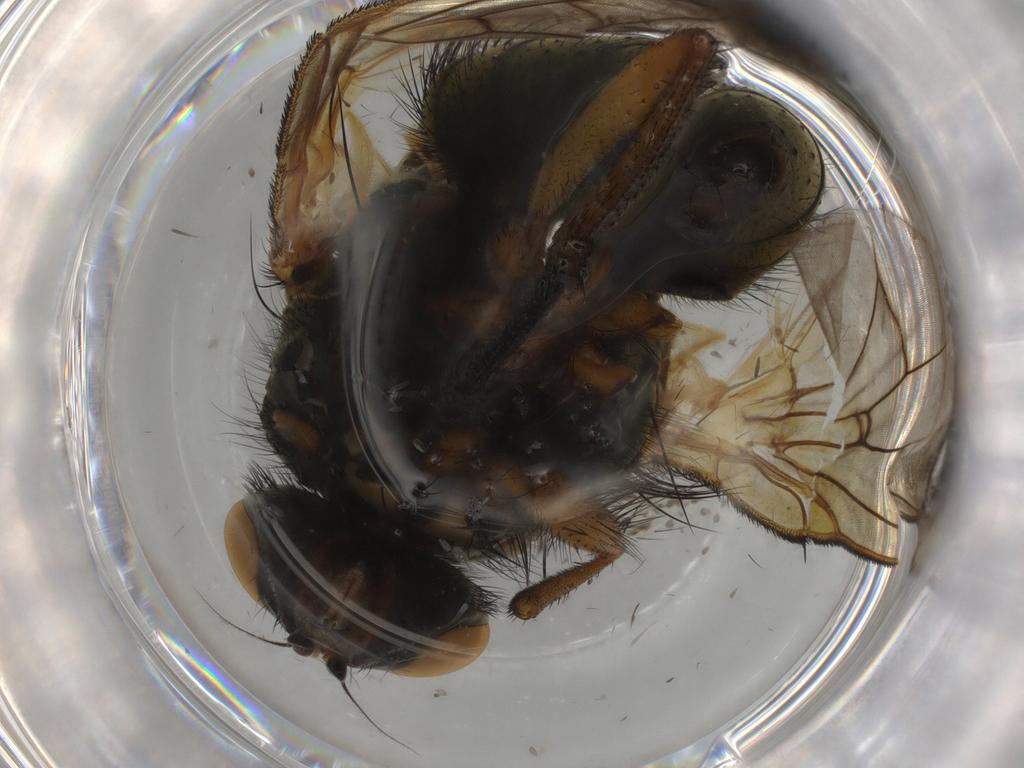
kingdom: Animalia
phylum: Arthropoda
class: Insecta
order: Diptera
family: Muscidae
